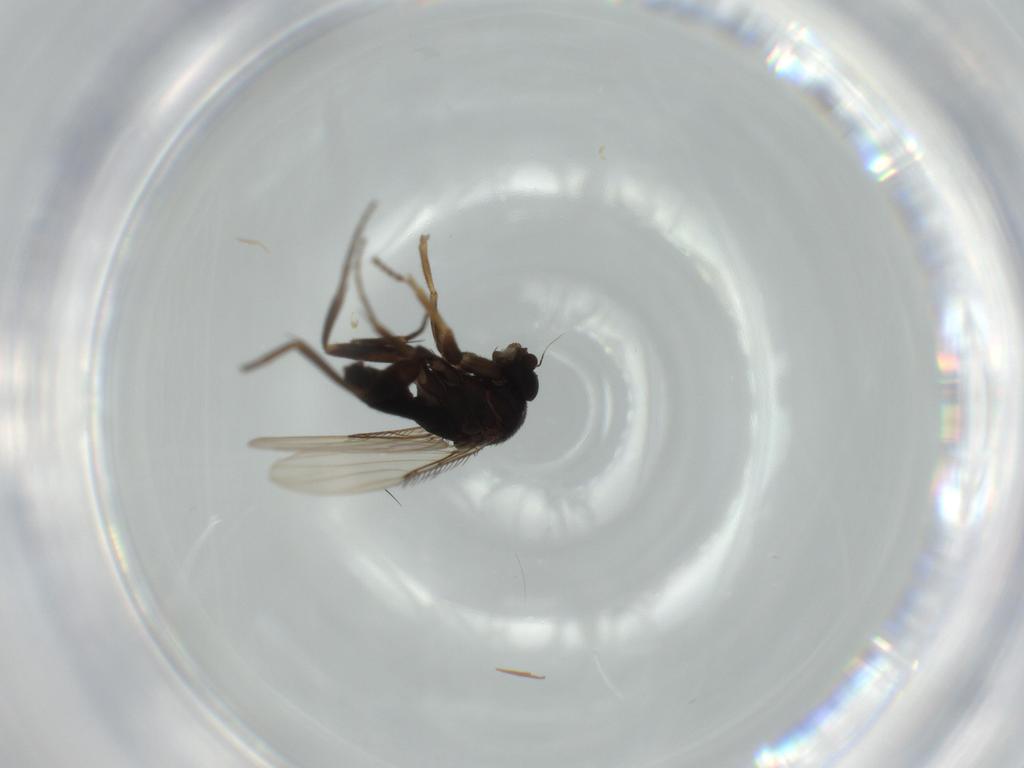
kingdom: Animalia
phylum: Arthropoda
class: Insecta
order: Diptera
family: Phoridae
